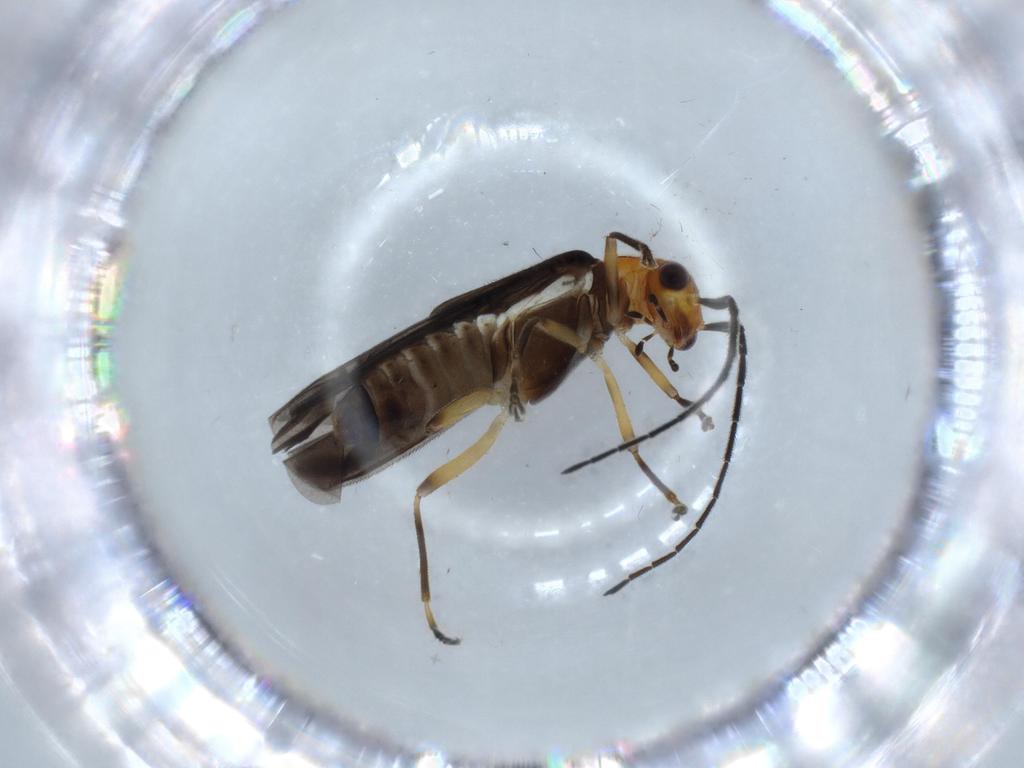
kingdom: Animalia
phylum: Arthropoda
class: Insecta
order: Coleoptera
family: Cantharidae
